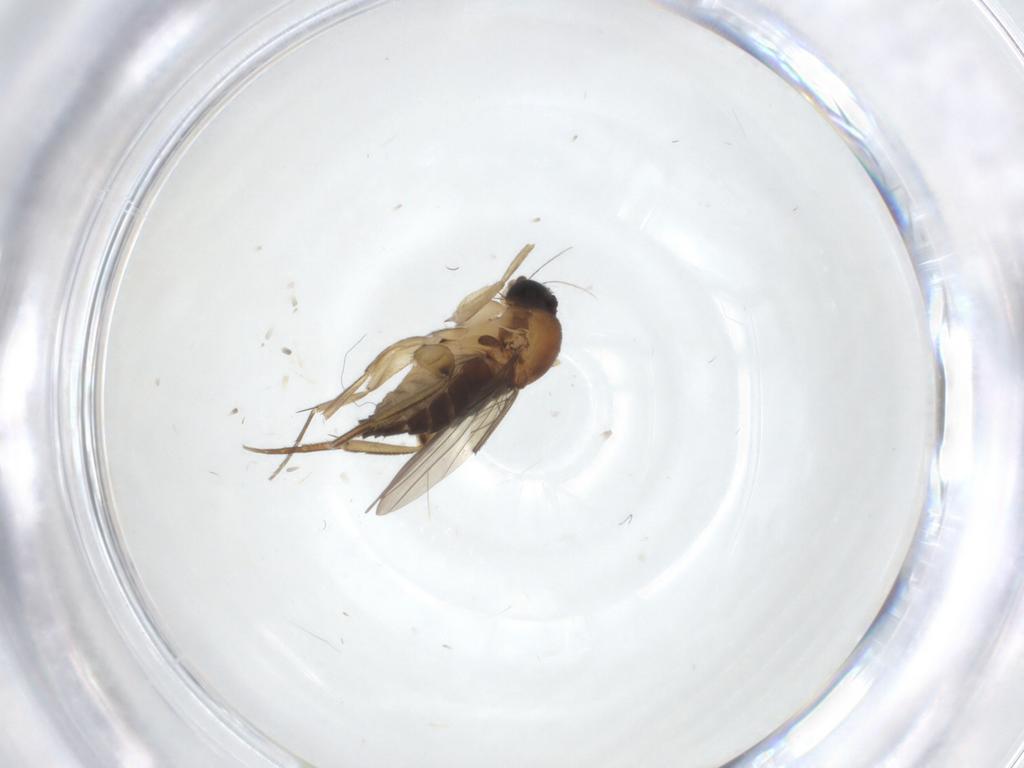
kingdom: Animalia
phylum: Arthropoda
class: Insecta
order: Diptera
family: Phoridae
